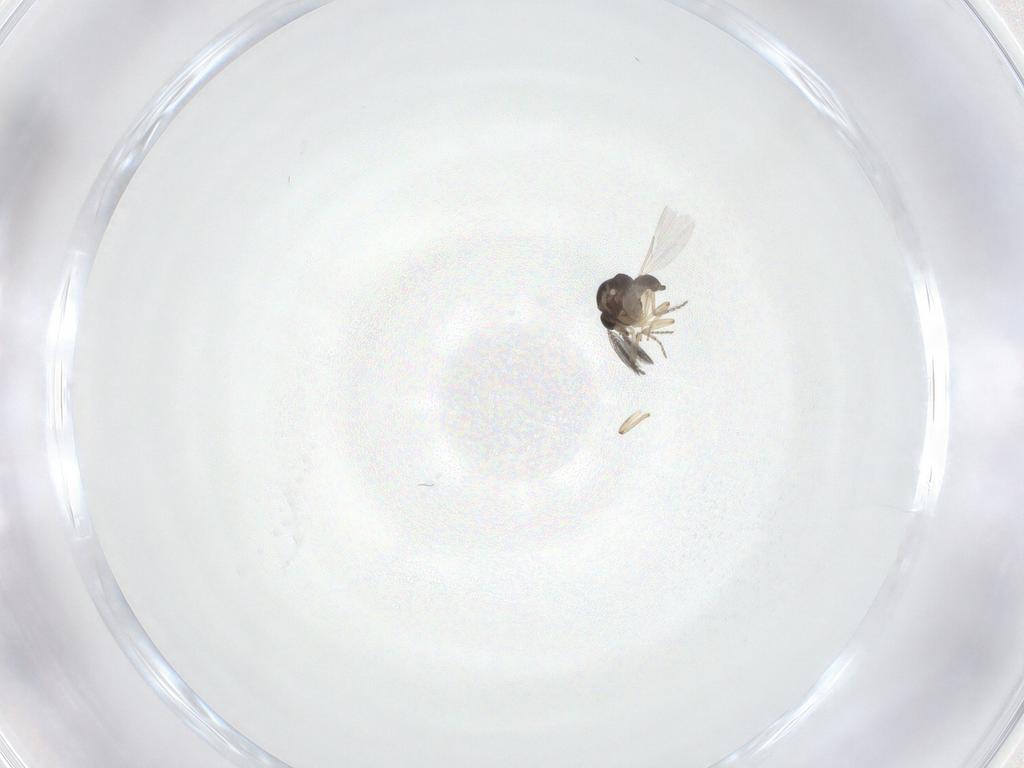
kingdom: Animalia
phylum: Arthropoda
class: Insecta
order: Diptera
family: Ceratopogonidae
